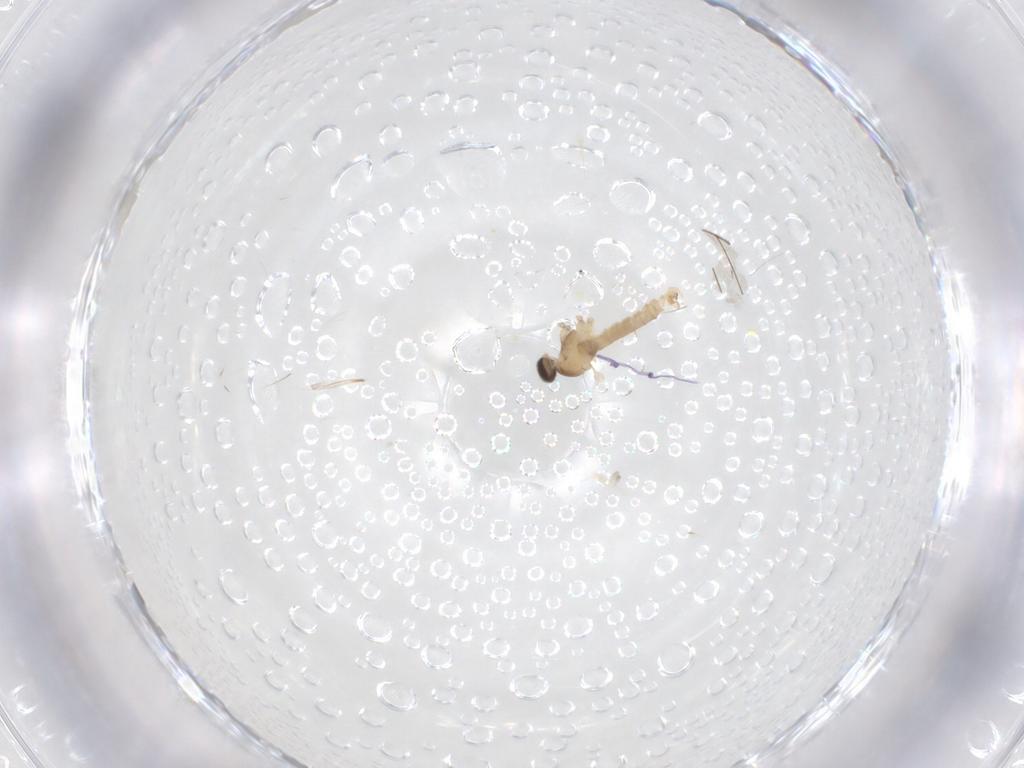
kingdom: Animalia
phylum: Arthropoda
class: Insecta
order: Diptera
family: Cecidomyiidae
